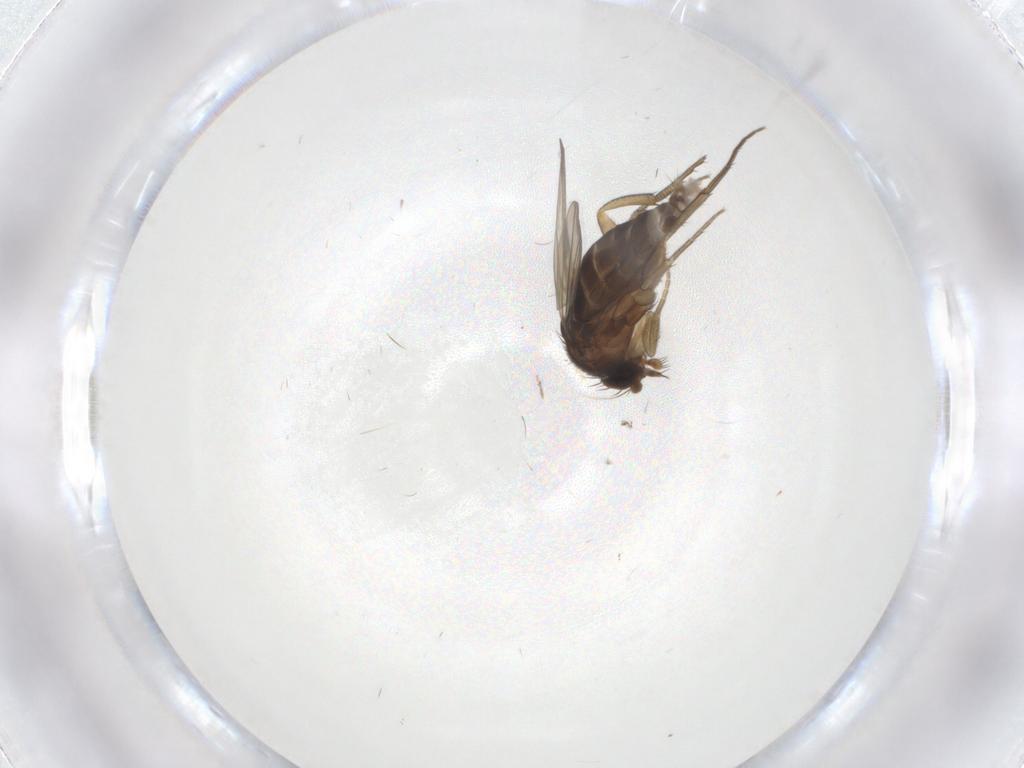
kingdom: Animalia
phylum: Arthropoda
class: Insecta
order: Diptera
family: Phoridae
